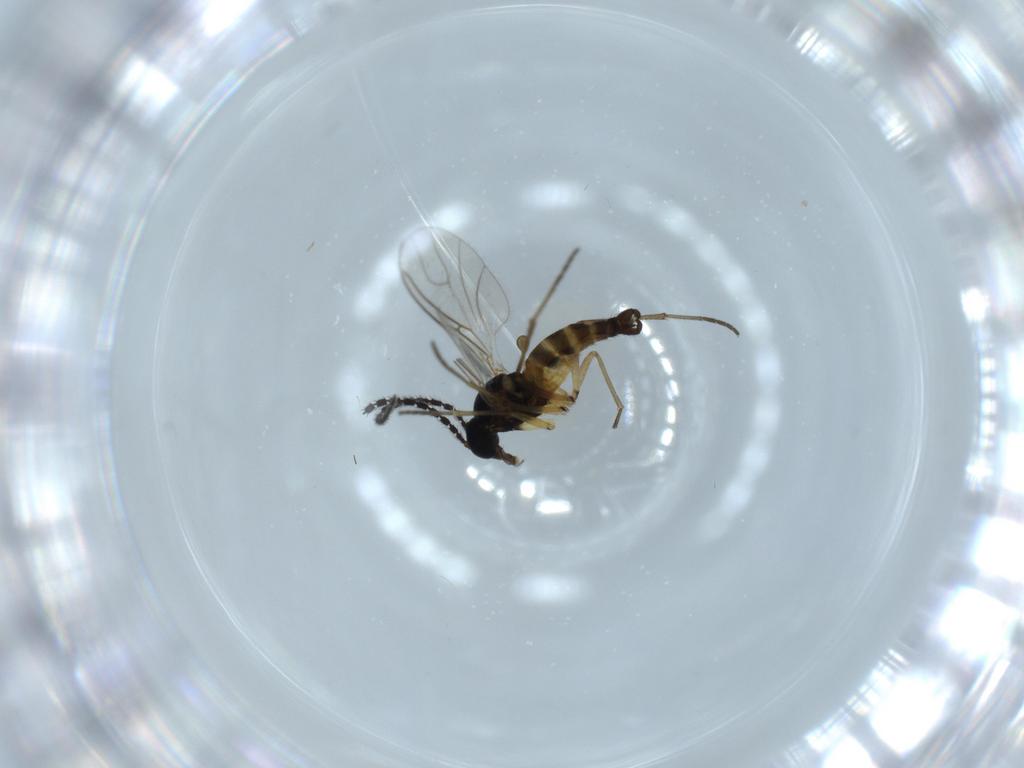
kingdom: Animalia
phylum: Arthropoda
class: Insecta
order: Diptera
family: Sciaridae
